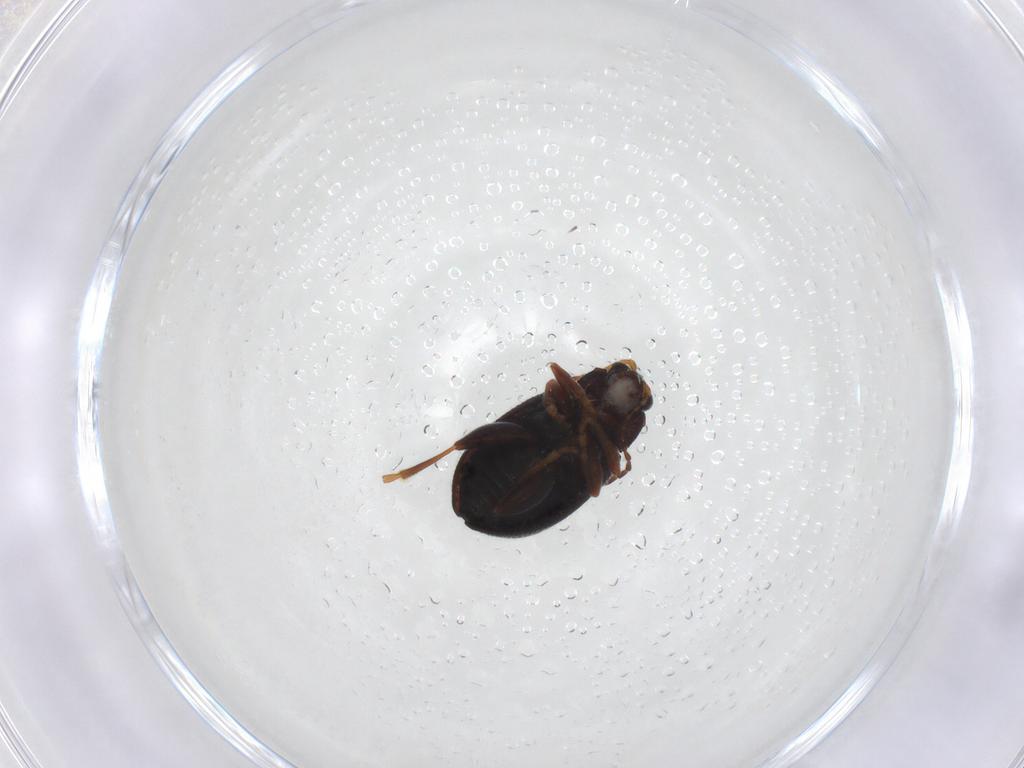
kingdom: Animalia
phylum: Arthropoda
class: Insecta
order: Coleoptera
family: Chrysomelidae
